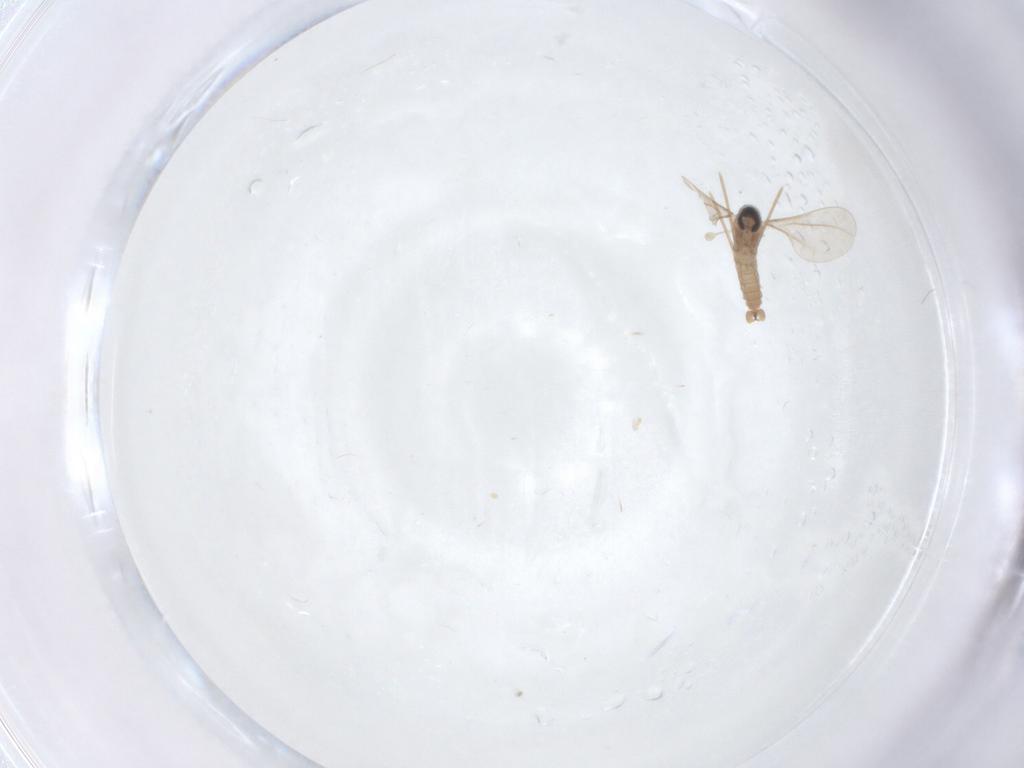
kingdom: Animalia
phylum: Arthropoda
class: Insecta
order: Diptera
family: Cecidomyiidae
